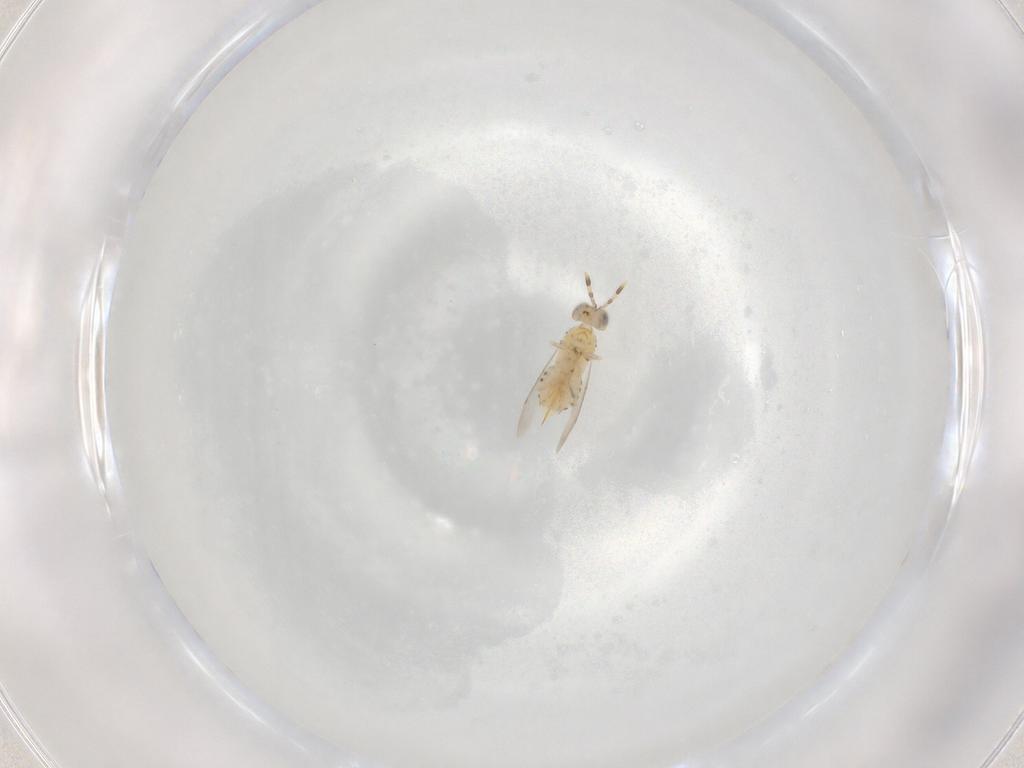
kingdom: Animalia
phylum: Arthropoda
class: Insecta
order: Hymenoptera
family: Aphelinidae
